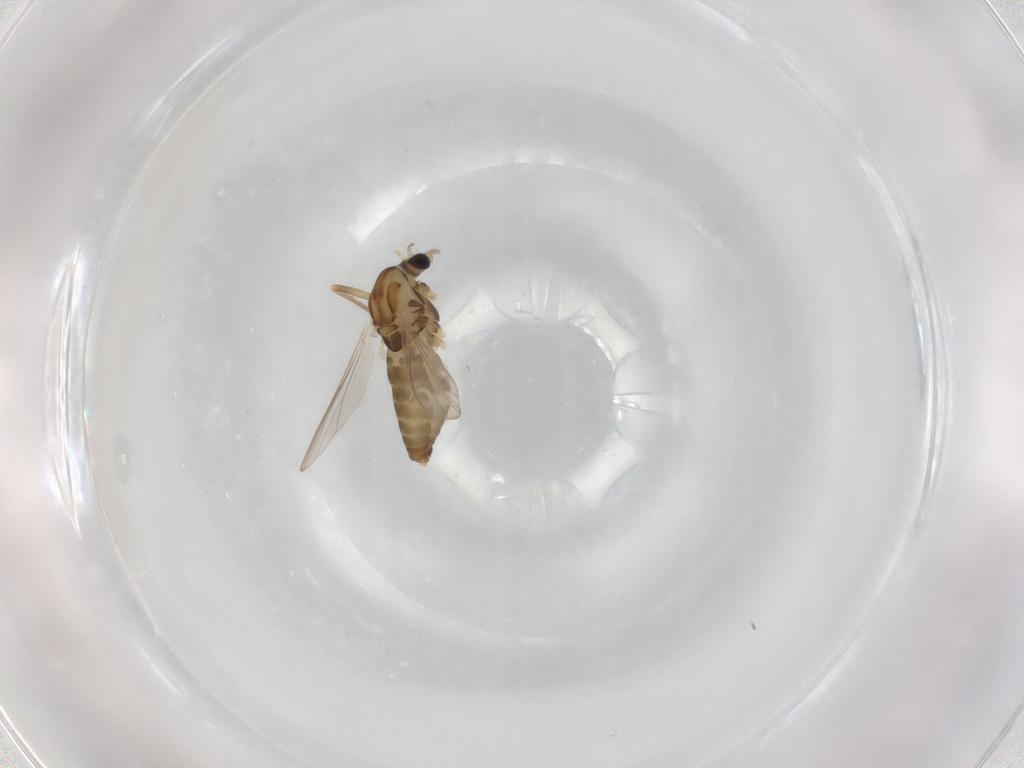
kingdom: Animalia
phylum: Arthropoda
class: Insecta
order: Diptera
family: Chironomidae
